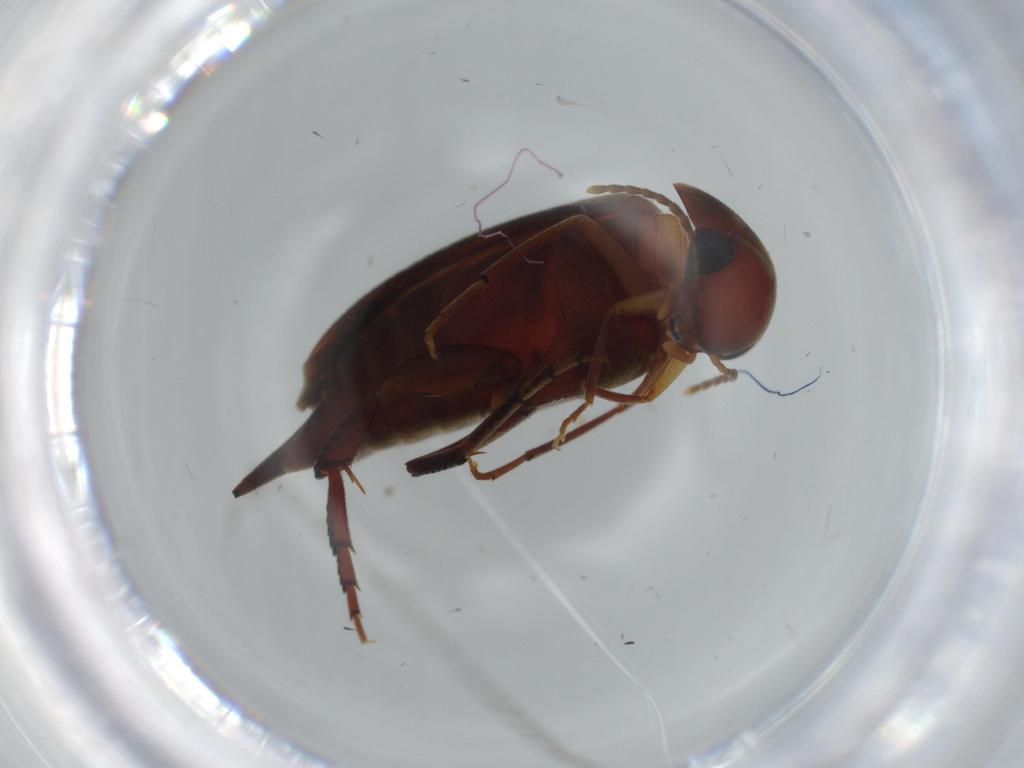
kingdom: Animalia
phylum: Arthropoda
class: Insecta
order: Coleoptera
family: Mordellidae
